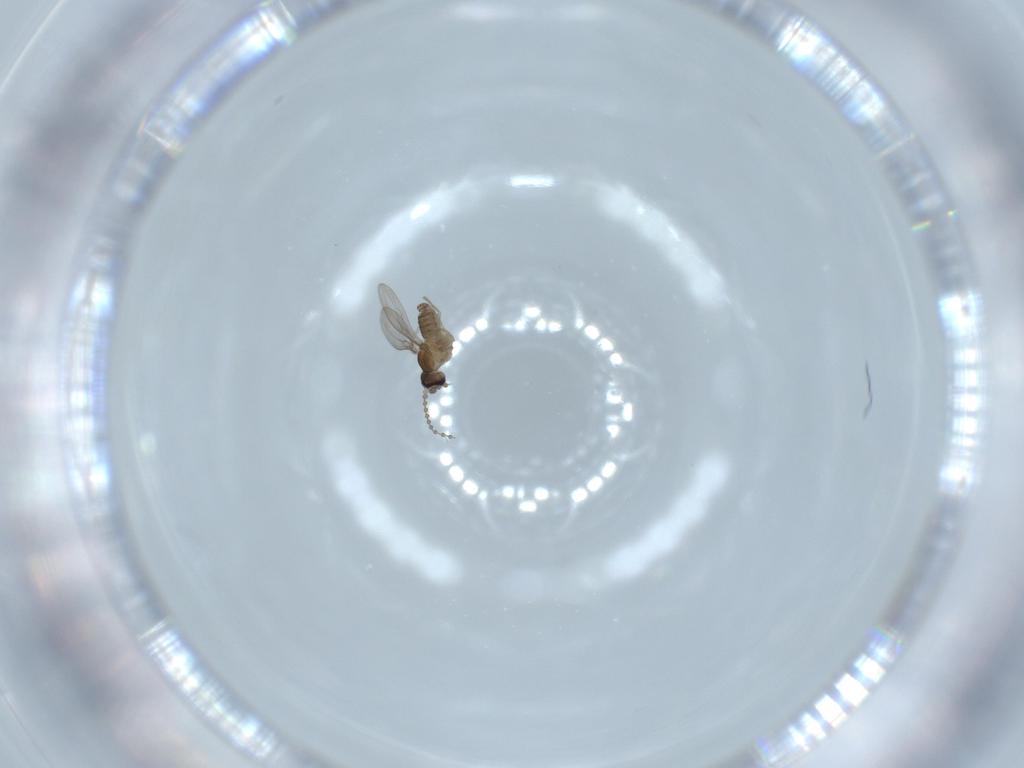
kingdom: Animalia
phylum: Arthropoda
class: Insecta
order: Diptera
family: Cecidomyiidae
